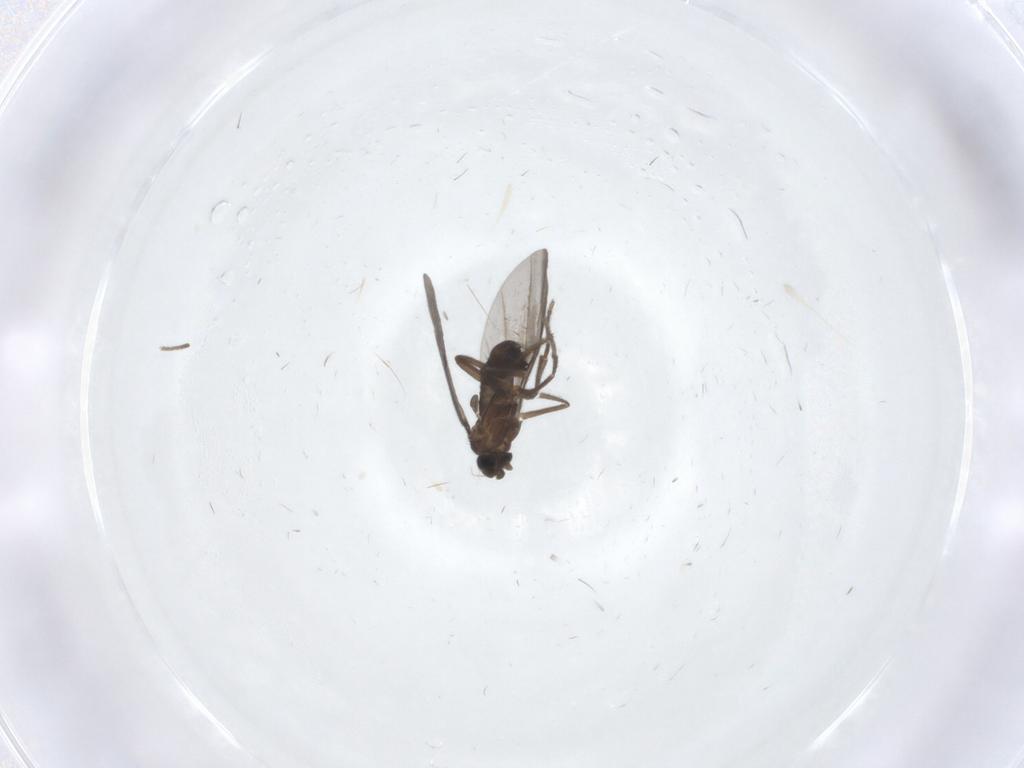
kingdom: Animalia
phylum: Arthropoda
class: Insecta
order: Diptera
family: Phoridae
